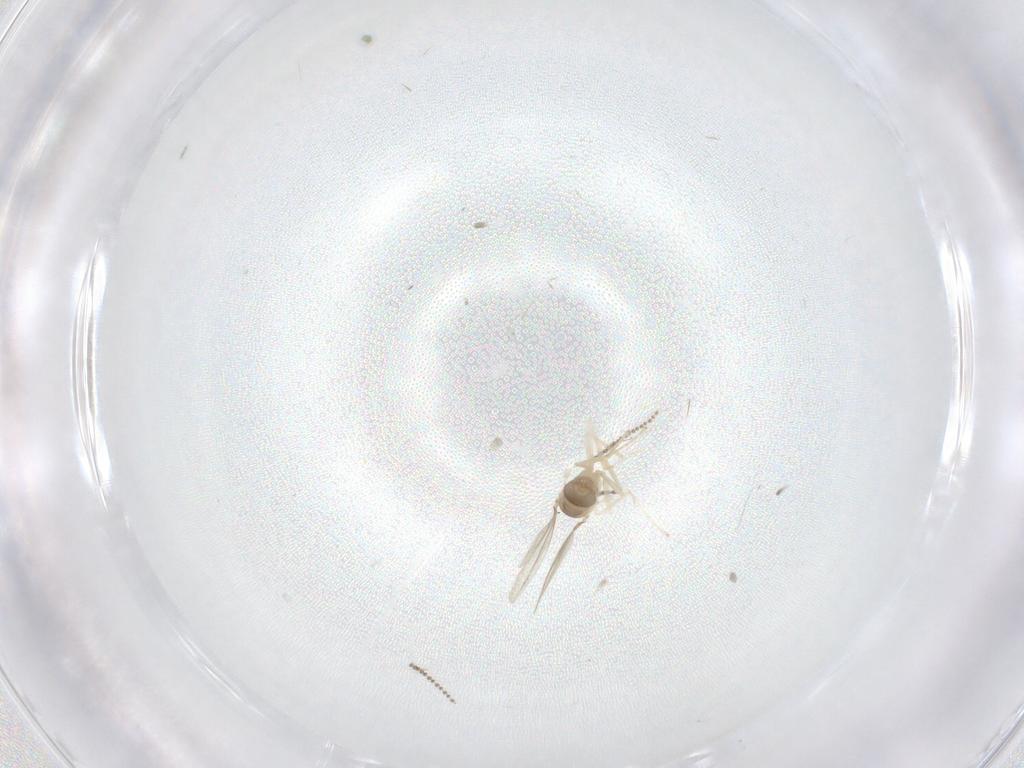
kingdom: Animalia
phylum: Arthropoda
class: Insecta
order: Diptera
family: Cecidomyiidae
